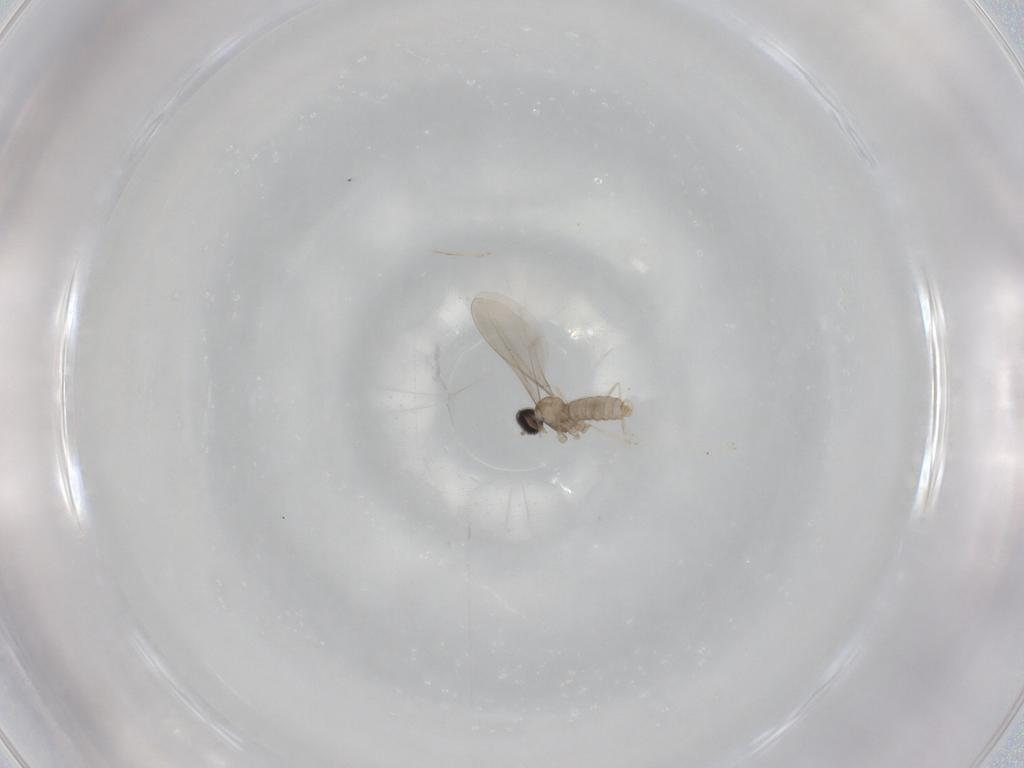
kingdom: Animalia
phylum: Arthropoda
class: Insecta
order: Diptera
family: Cecidomyiidae
